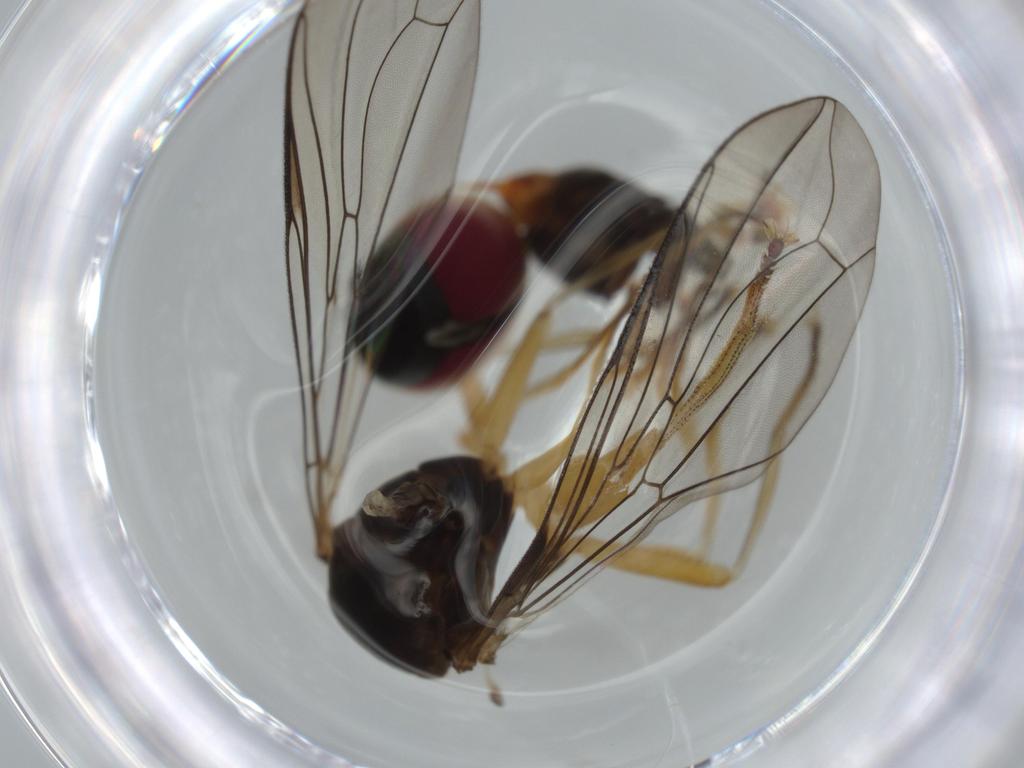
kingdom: Animalia
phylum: Arthropoda
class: Insecta
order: Diptera
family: Pipunculidae
